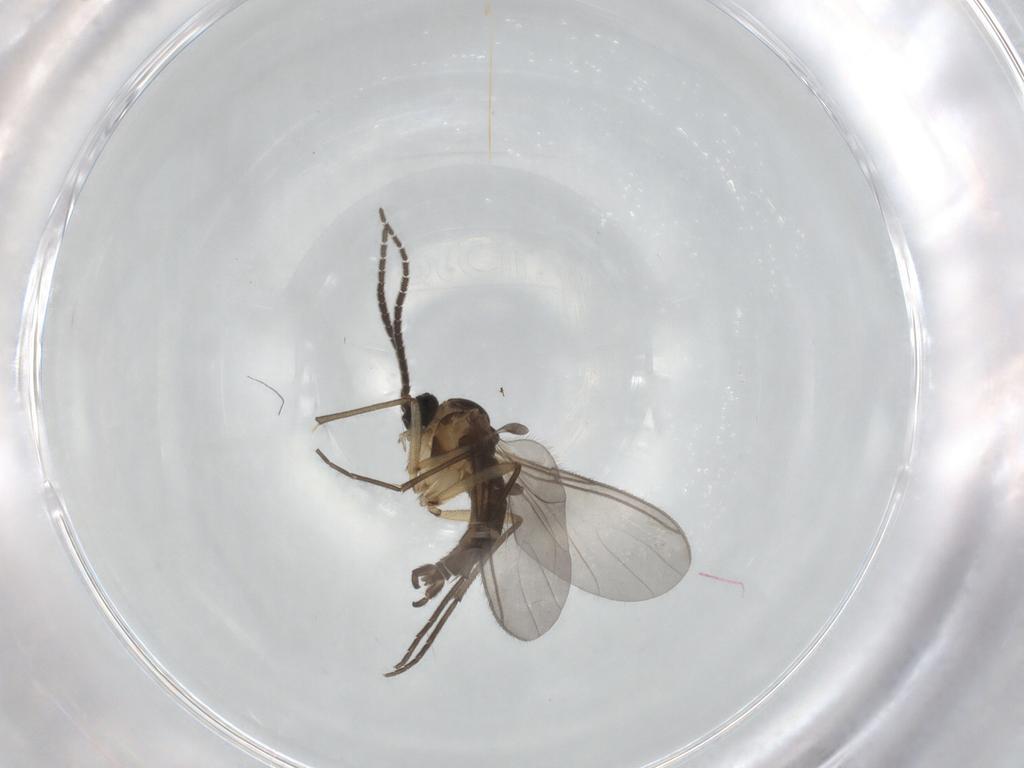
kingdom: Animalia
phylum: Arthropoda
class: Insecta
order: Diptera
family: Sciaridae
